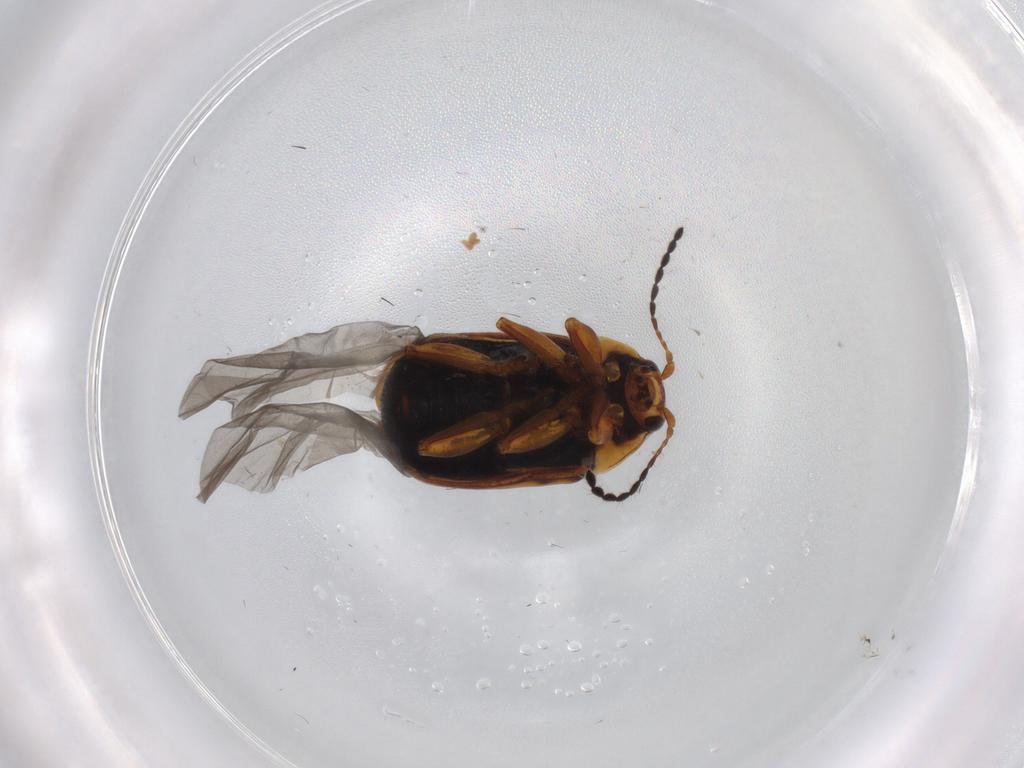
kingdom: Animalia
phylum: Arthropoda
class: Insecta
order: Coleoptera
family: Chrysomelidae
